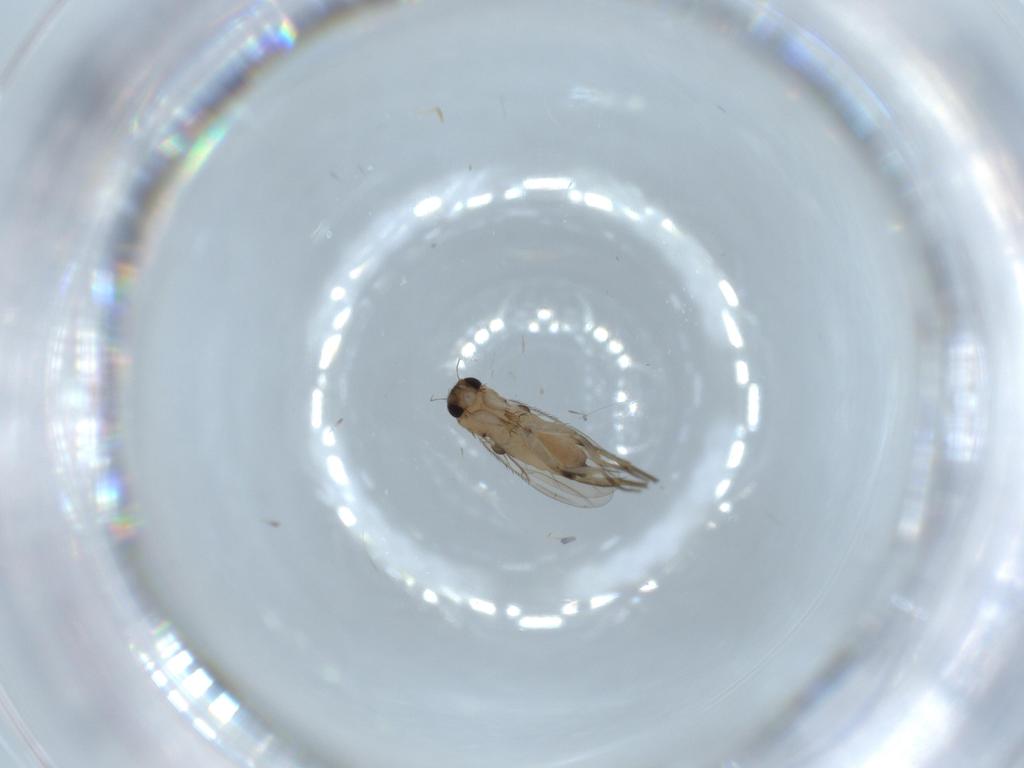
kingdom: Animalia
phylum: Arthropoda
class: Insecta
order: Diptera
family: Phoridae
